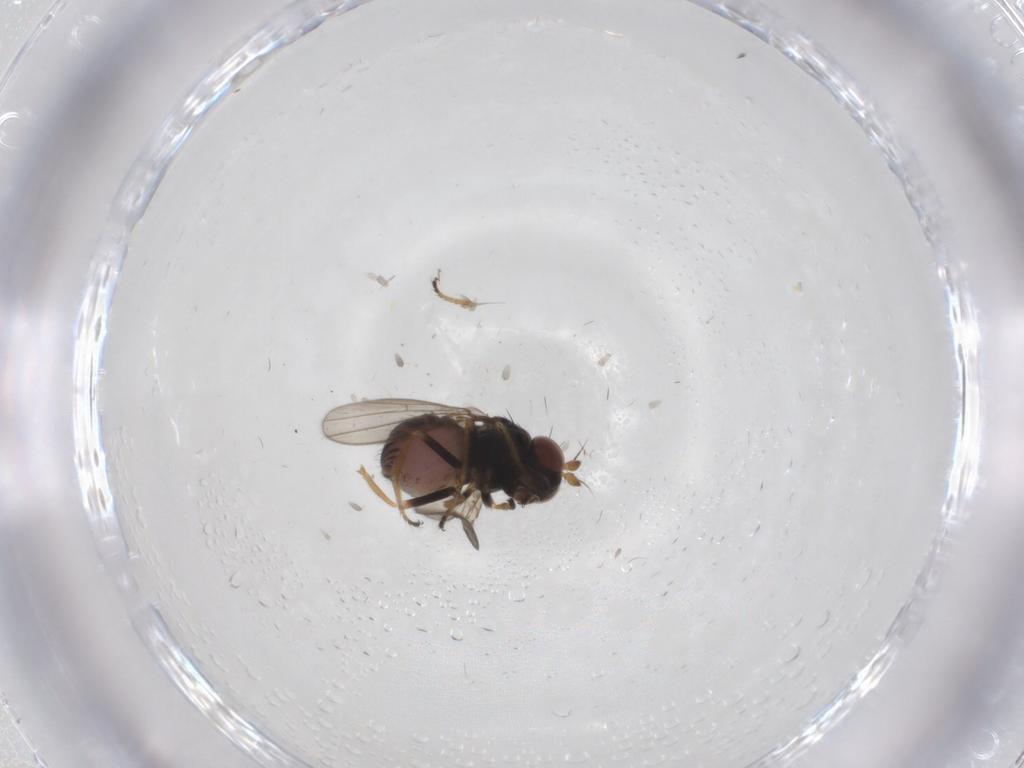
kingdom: Animalia
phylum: Arthropoda
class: Insecta
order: Diptera
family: Ephydridae
